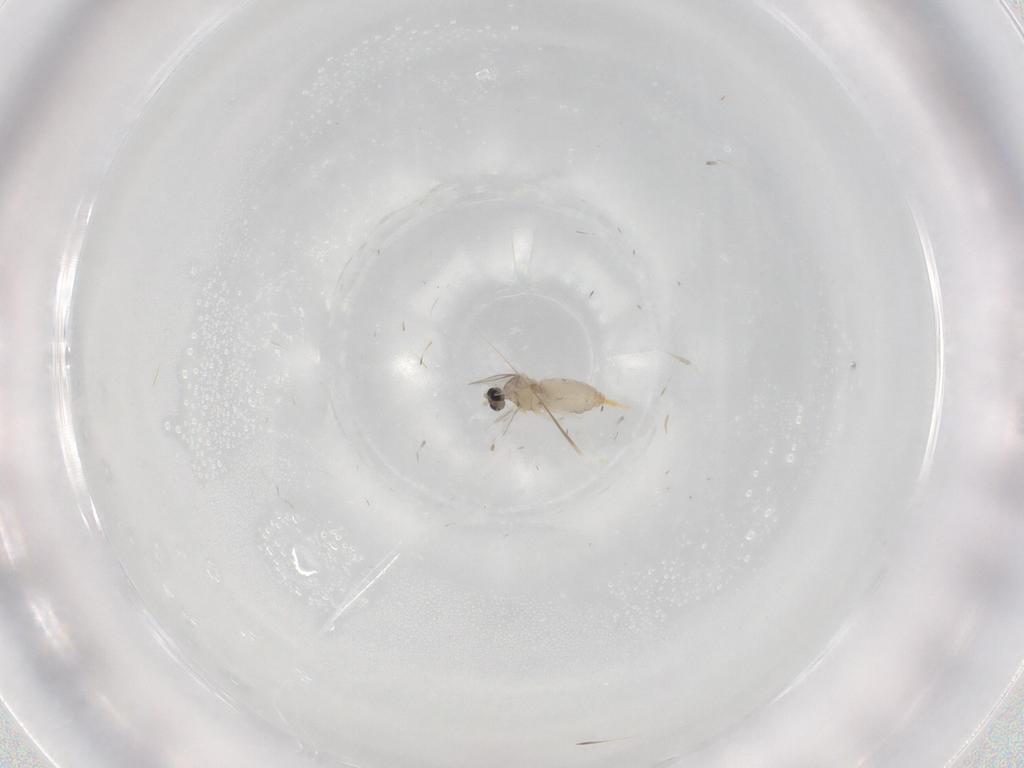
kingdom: Animalia
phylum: Arthropoda
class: Insecta
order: Diptera
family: Cecidomyiidae
